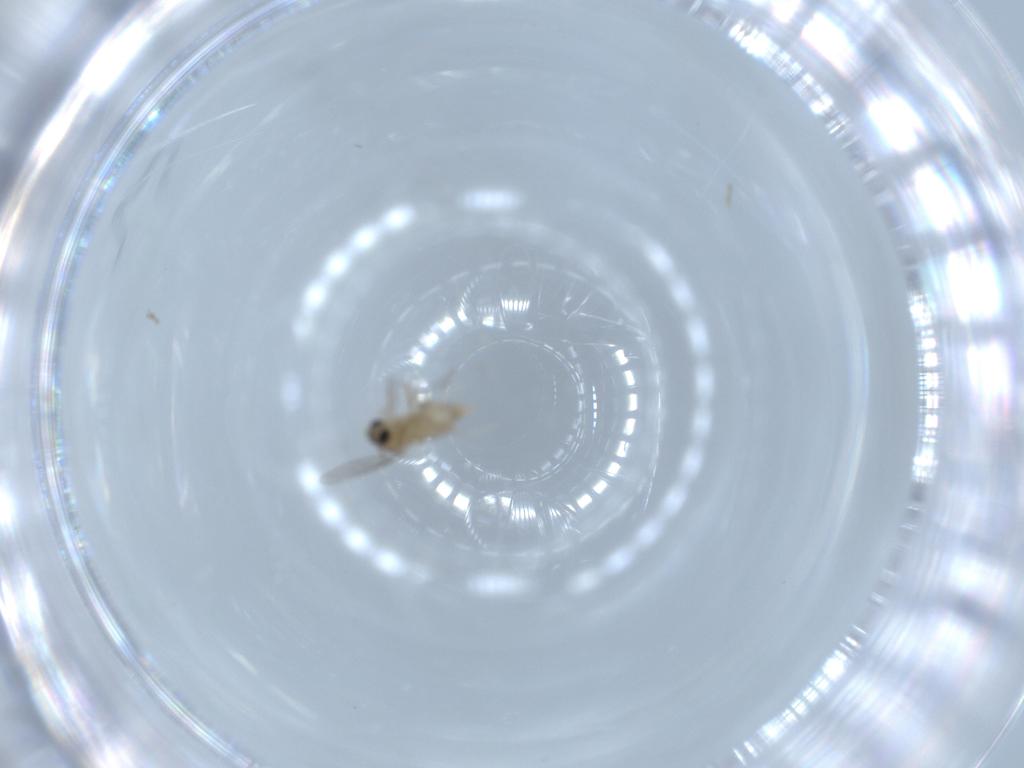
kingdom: Animalia
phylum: Arthropoda
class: Insecta
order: Diptera
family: Cecidomyiidae
